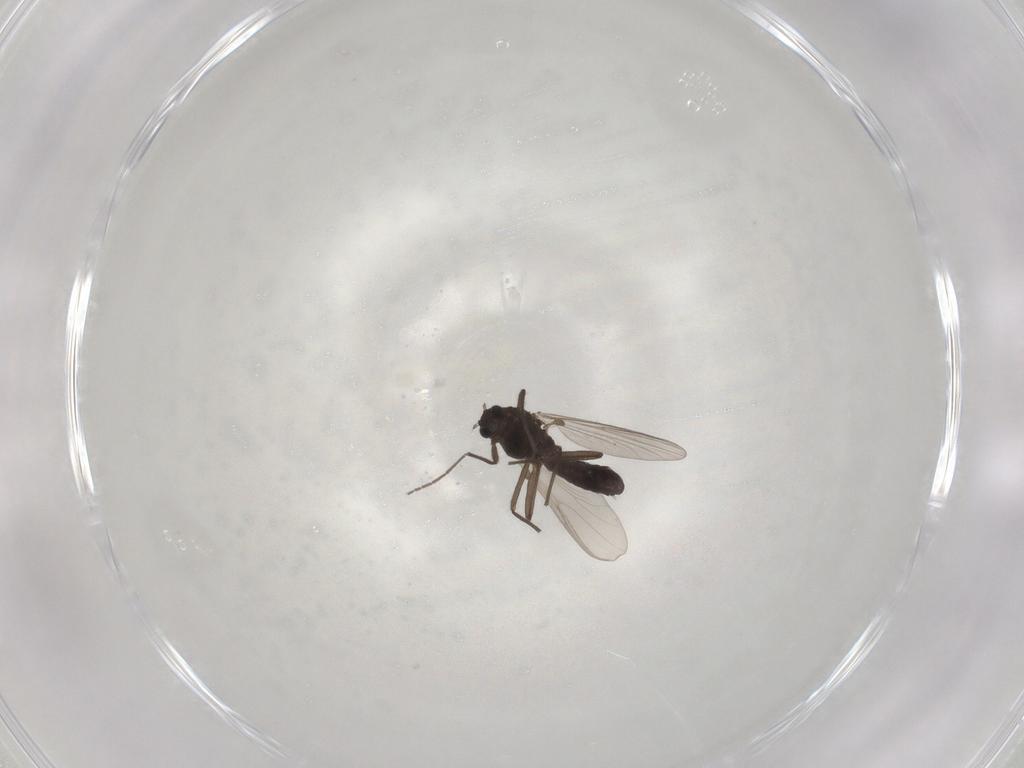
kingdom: Animalia
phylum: Arthropoda
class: Insecta
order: Diptera
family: Chironomidae
